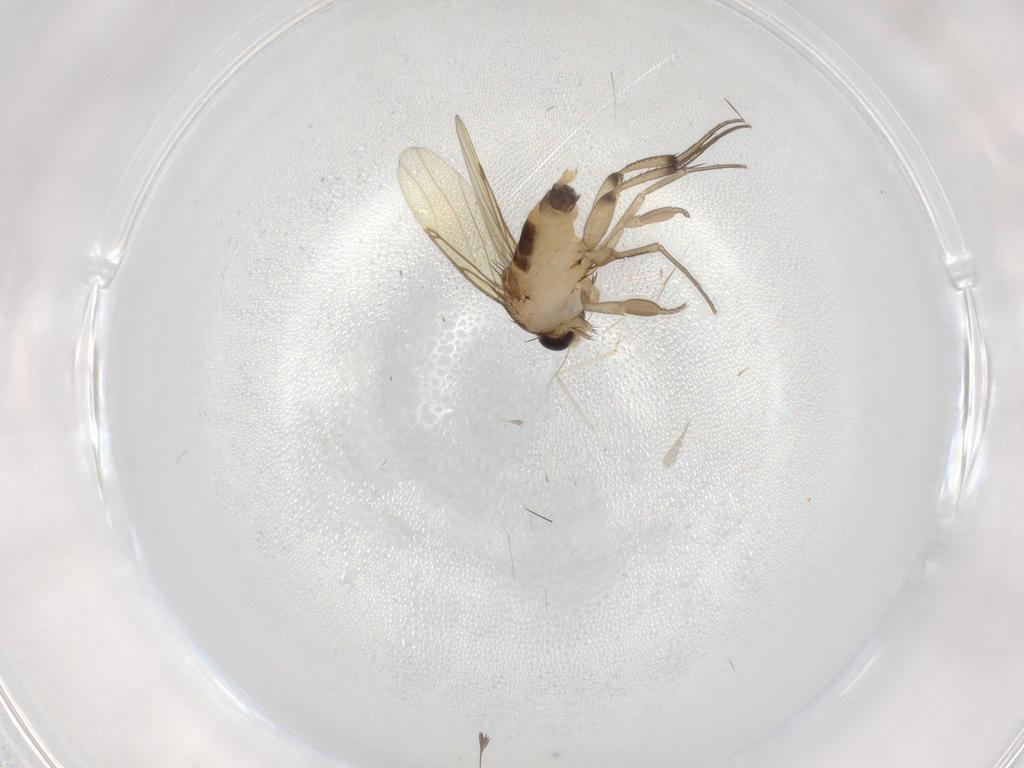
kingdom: Animalia
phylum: Arthropoda
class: Insecta
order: Diptera
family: Phoridae
